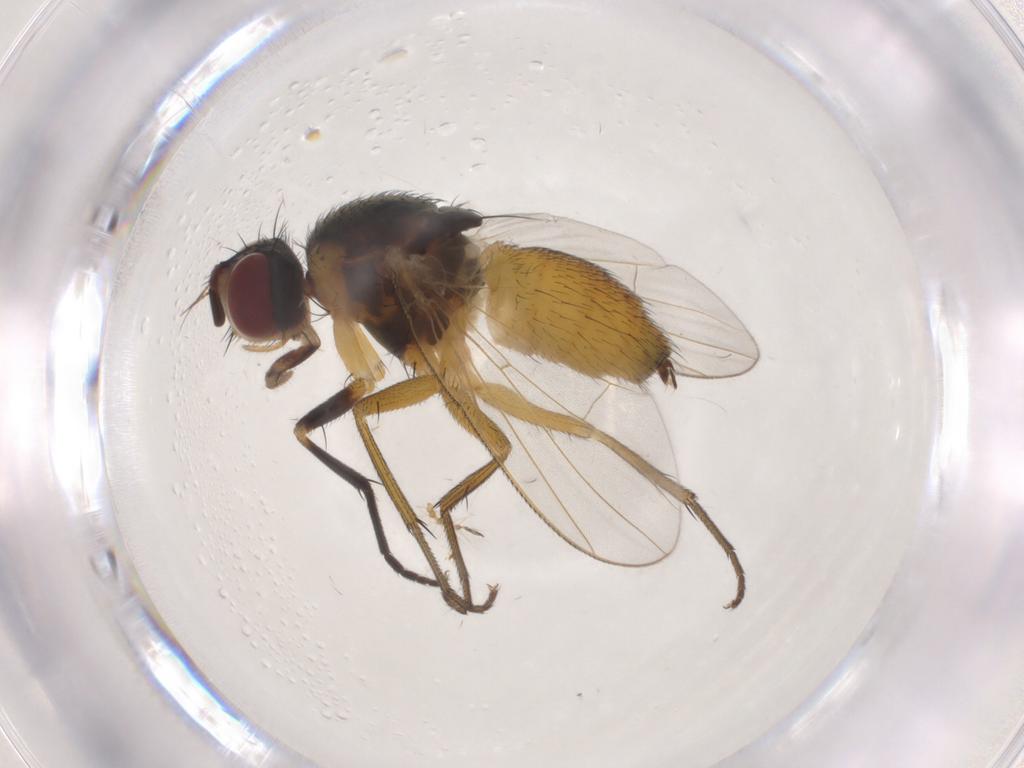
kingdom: Animalia
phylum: Arthropoda
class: Insecta
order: Diptera
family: Muscidae
